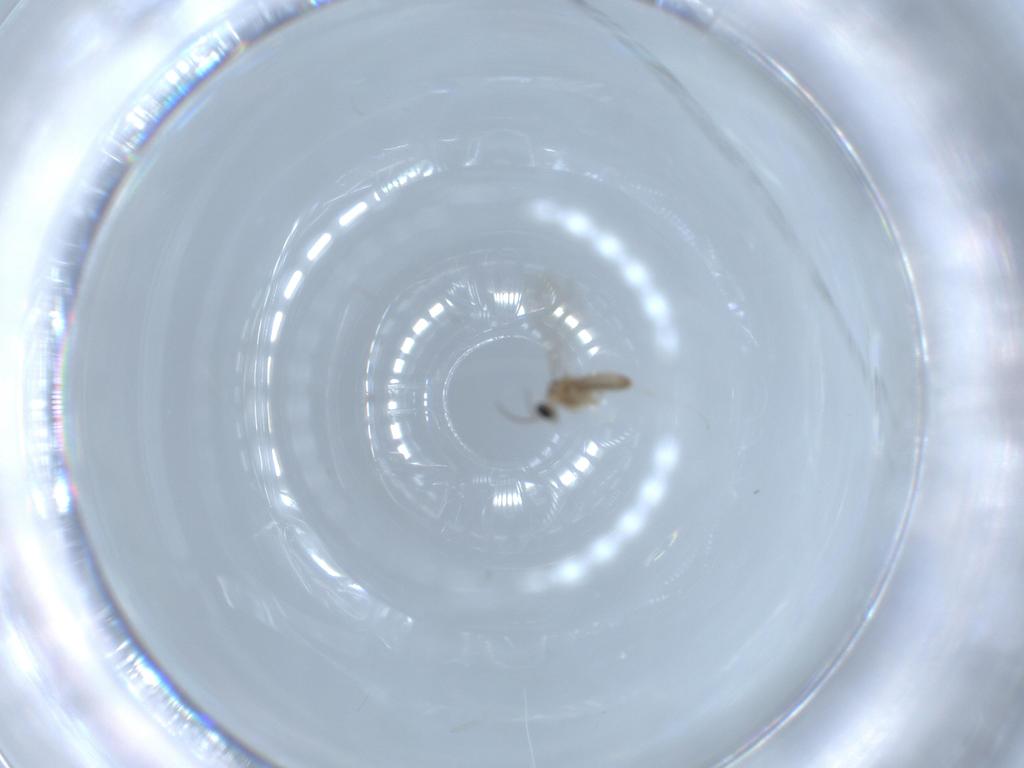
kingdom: Animalia
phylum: Arthropoda
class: Insecta
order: Diptera
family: Cecidomyiidae
